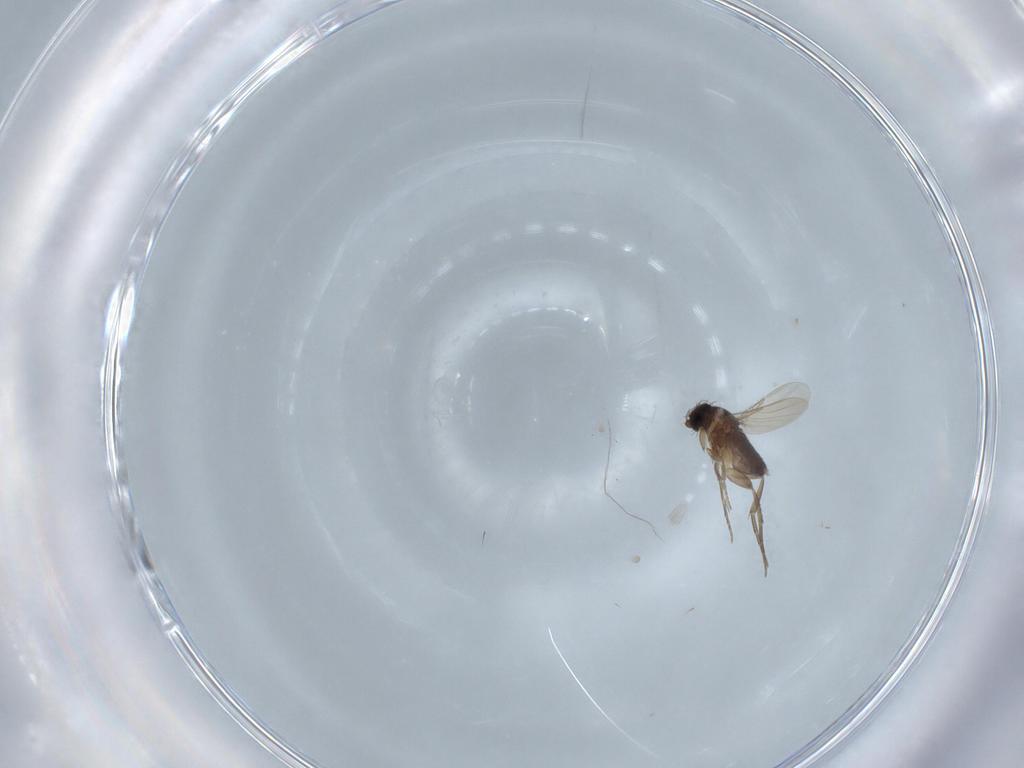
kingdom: Animalia
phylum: Arthropoda
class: Insecta
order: Diptera
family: Phoridae
